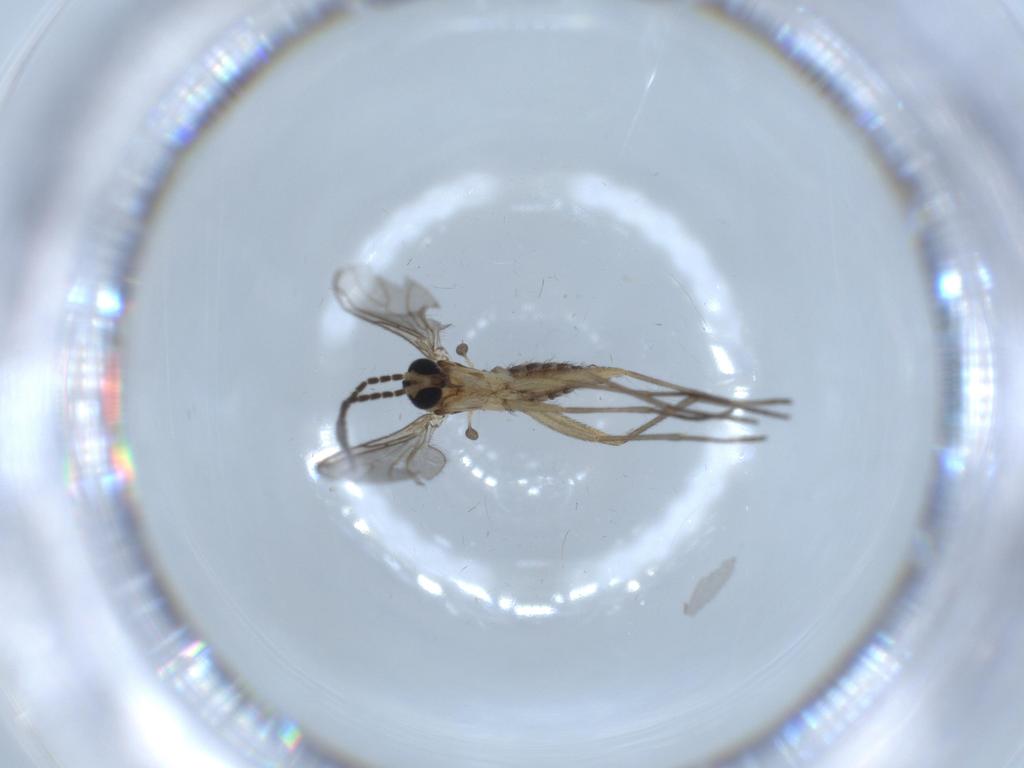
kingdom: Animalia
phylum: Arthropoda
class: Insecta
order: Diptera
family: Sciaridae
